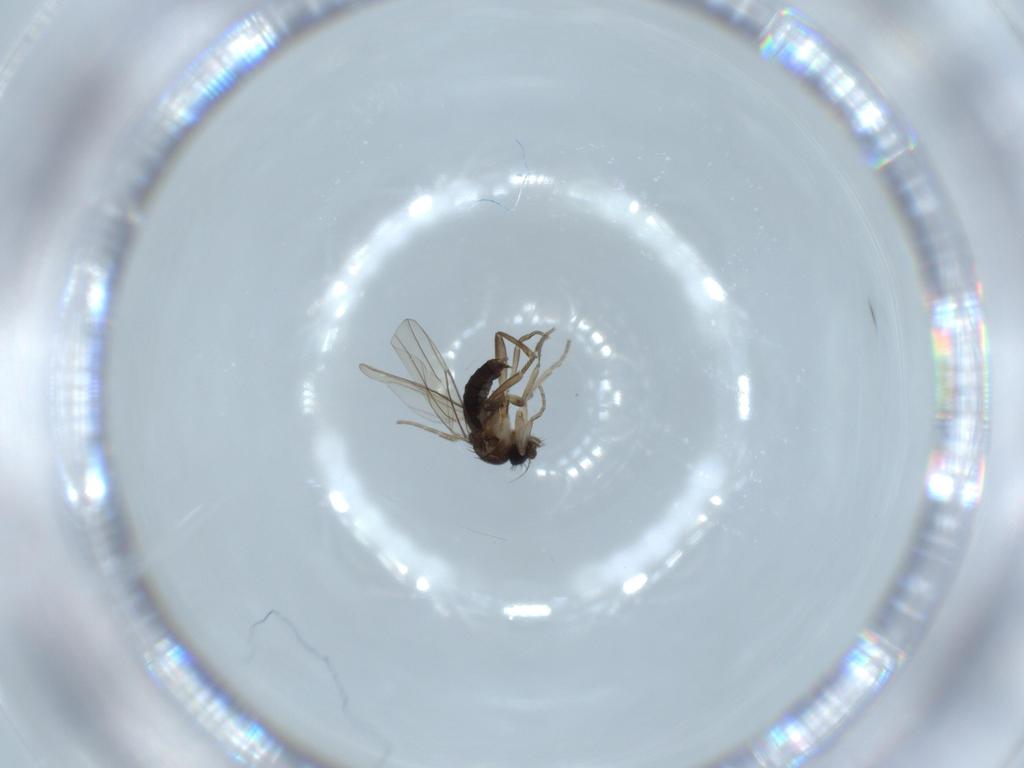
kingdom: Animalia
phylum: Arthropoda
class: Insecta
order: Diptera
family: Phoridae
